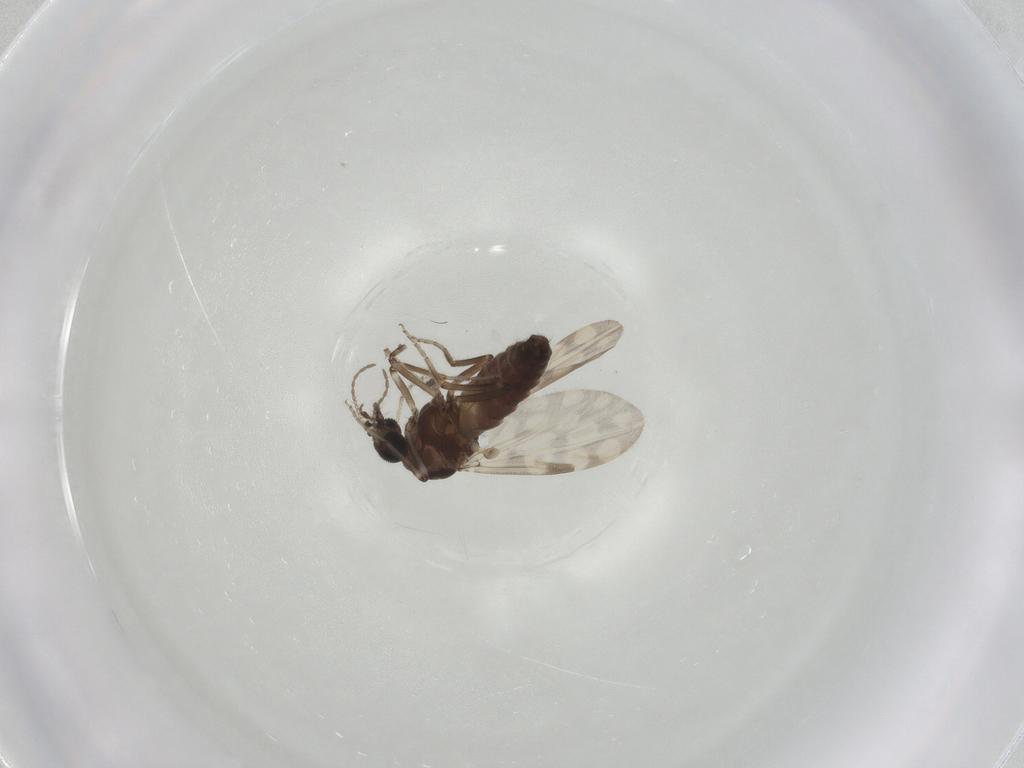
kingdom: Animalia
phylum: Arthropoda
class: Insecta
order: Diptera
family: Ceratopogonidae
